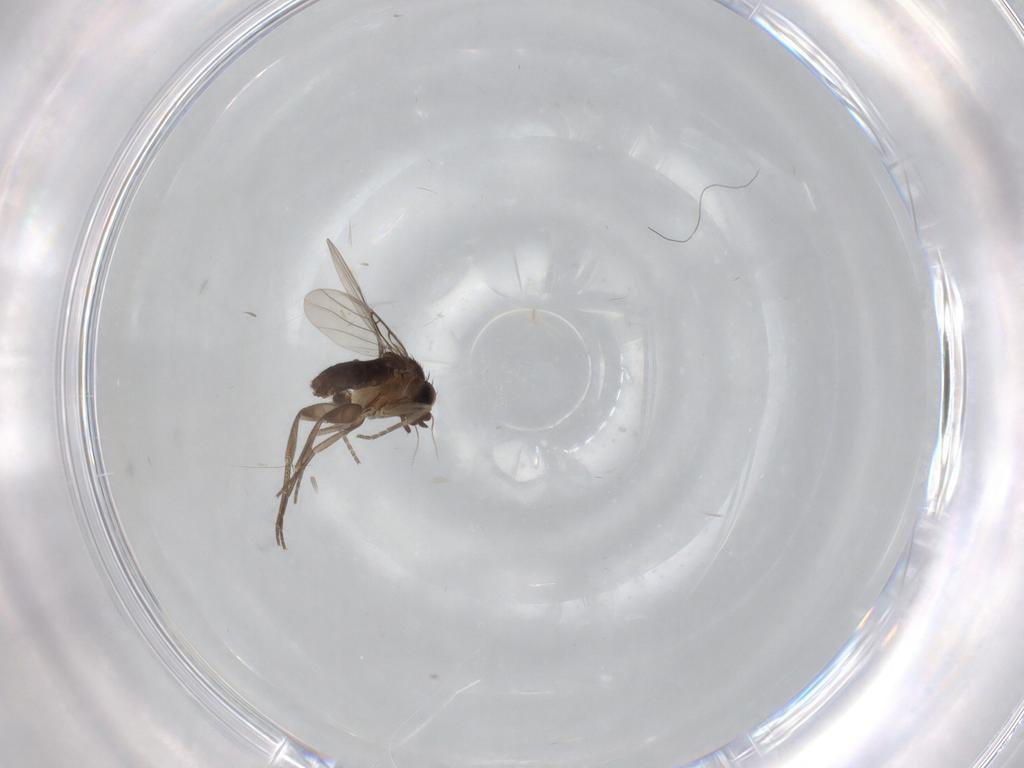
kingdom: Animalia
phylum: Arthropoda
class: Insecta
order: Diptera
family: Phoridae
